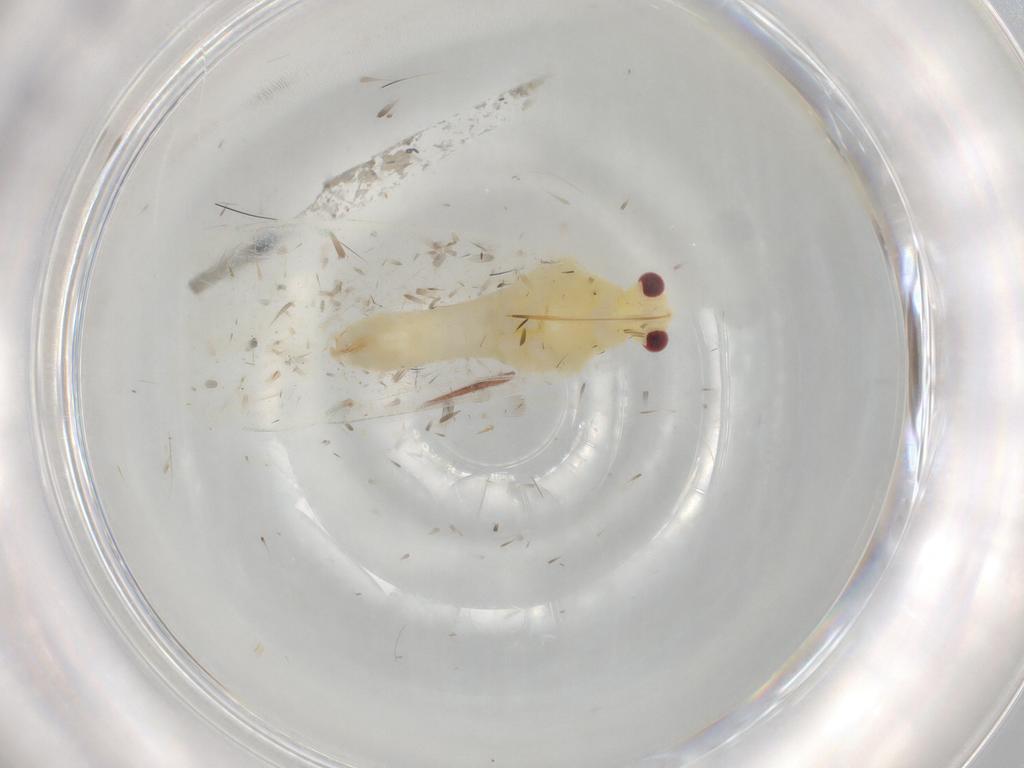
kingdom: Animalia
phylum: Arthropoda
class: Insecta
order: Hemiptera
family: Miridae
